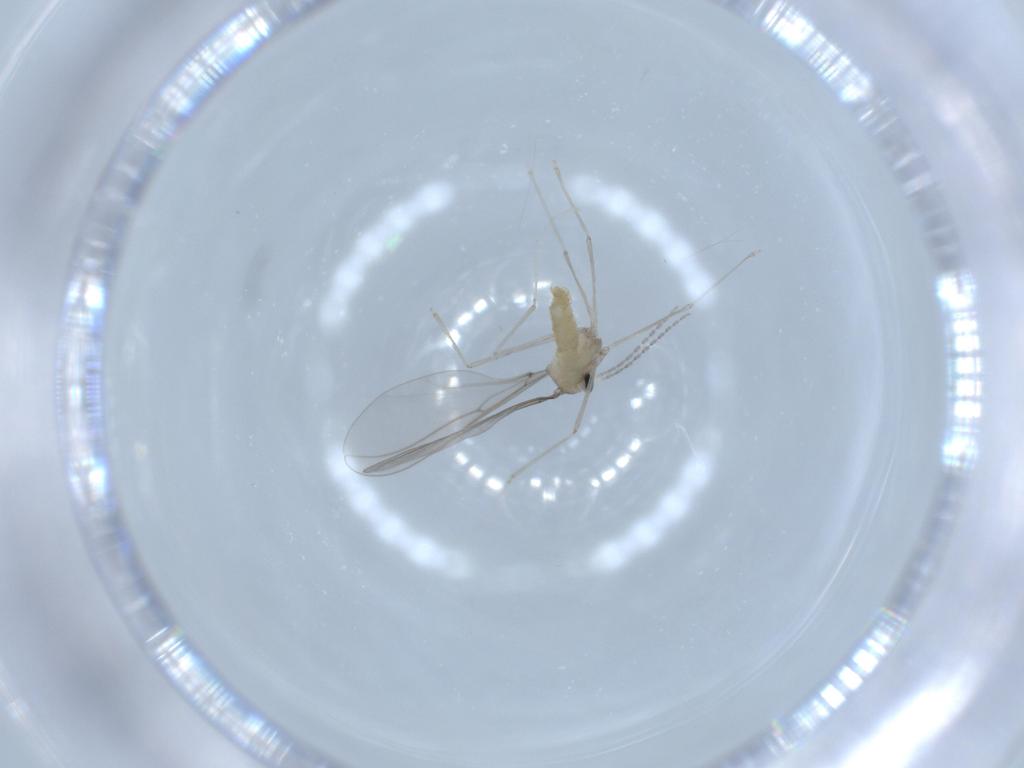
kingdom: Animalia
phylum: Arthropoda
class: Insecta
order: Diptera
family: Cecidomyiidae
